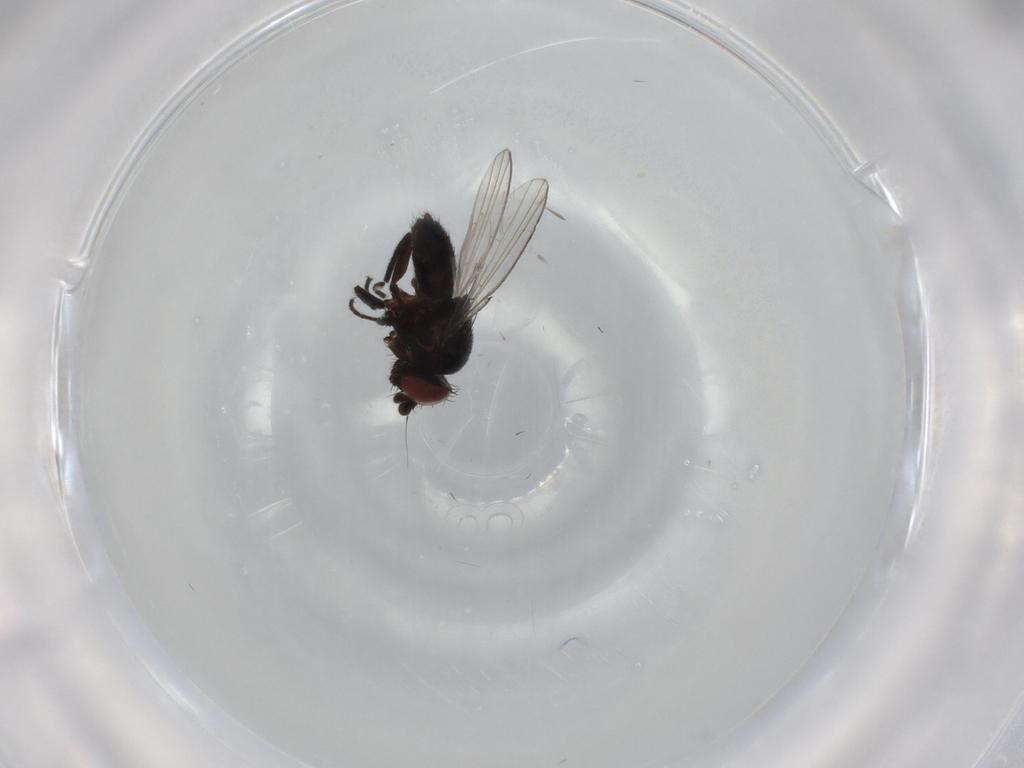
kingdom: Animalia
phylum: Arthropoda
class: Insecta
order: Diptera
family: Milichiidae
